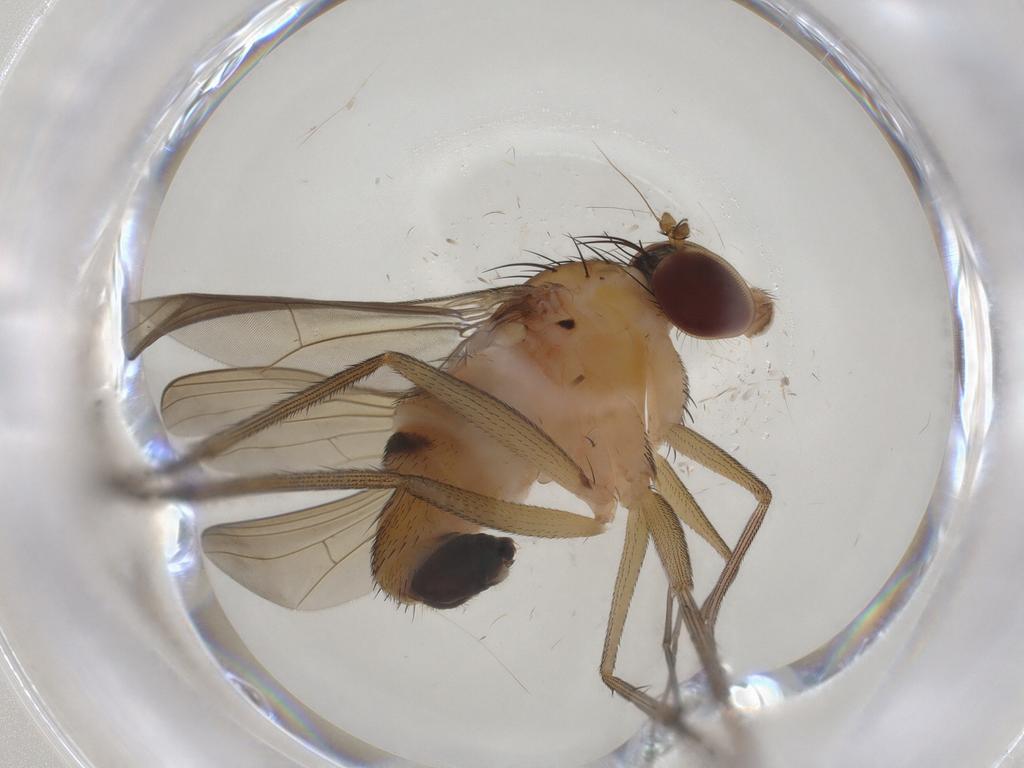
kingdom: Animalia
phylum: Arthropoda
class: Insecta
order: Diptera
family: Dolichopodidae
